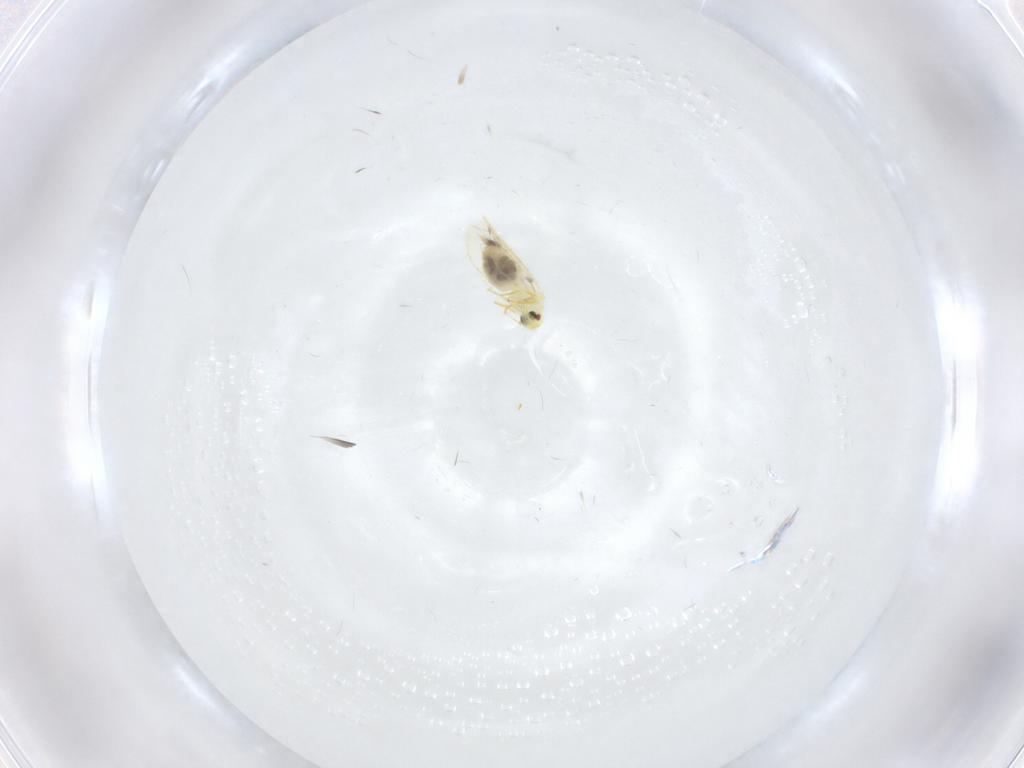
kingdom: Animalia
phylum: Arthropoda
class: Insecta
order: Hemiptera
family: Aleyrodidae
